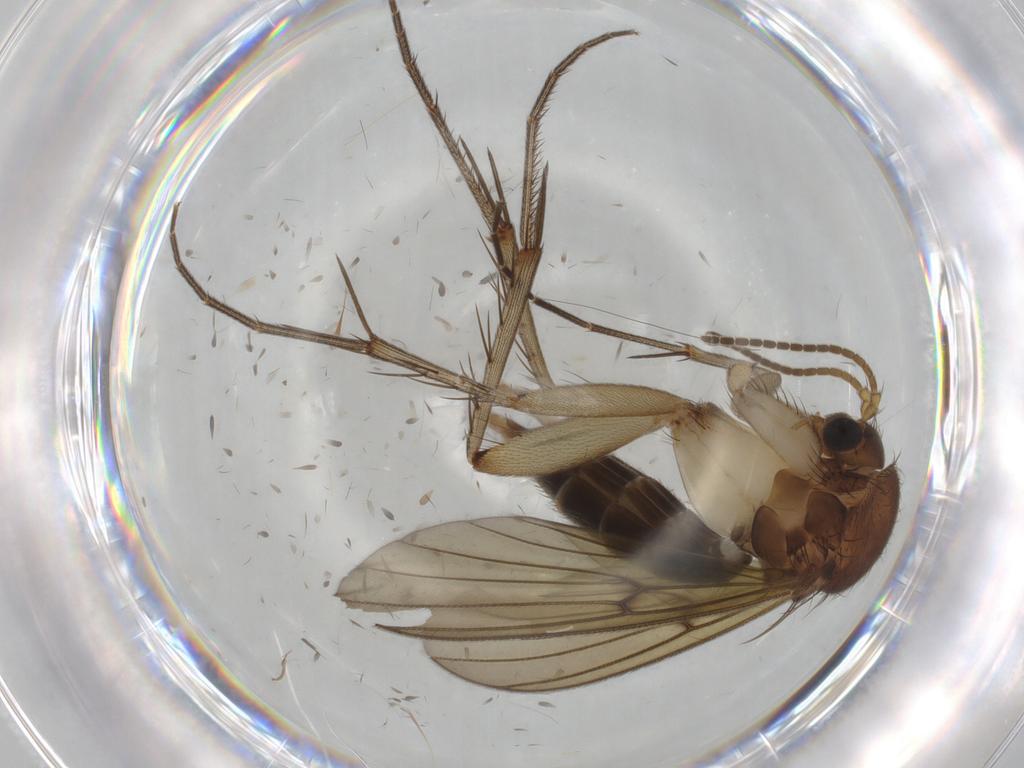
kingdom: Animalia
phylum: Arthropoda
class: Insecta
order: Diptera
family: Mycetophilidae
